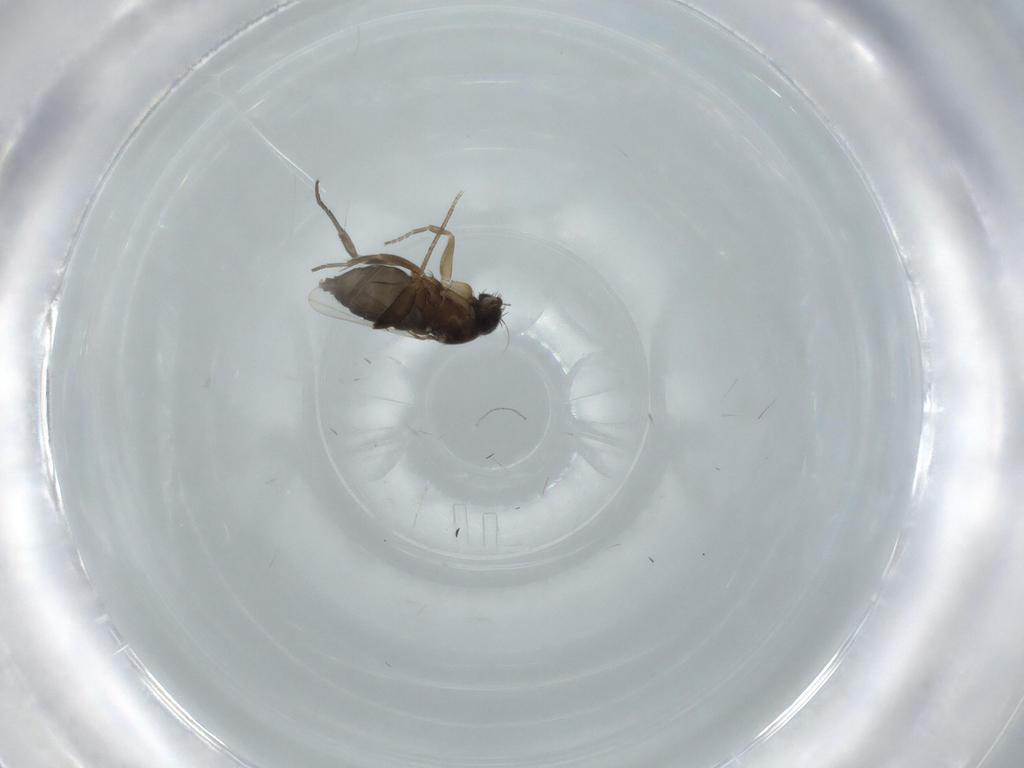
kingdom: Animalia
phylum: Arthropoda
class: Insecta
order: Diptera
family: Phoridae
